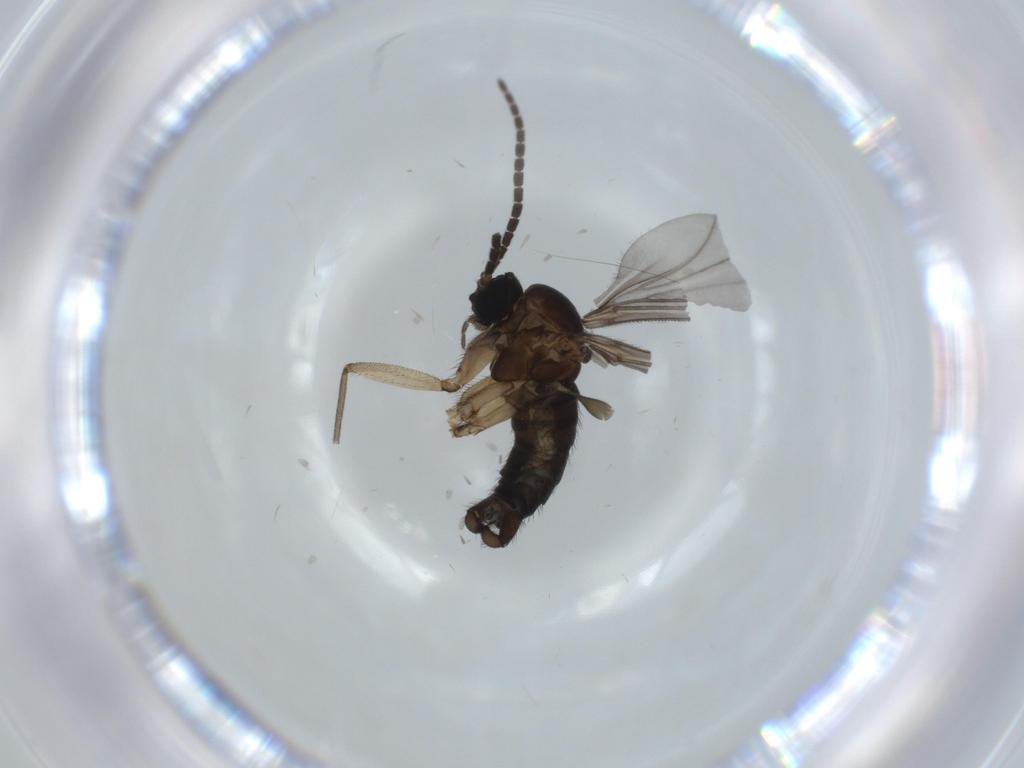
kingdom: Animalia
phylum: Arthropoda
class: Insecta
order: Diptera
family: Sciaridae
